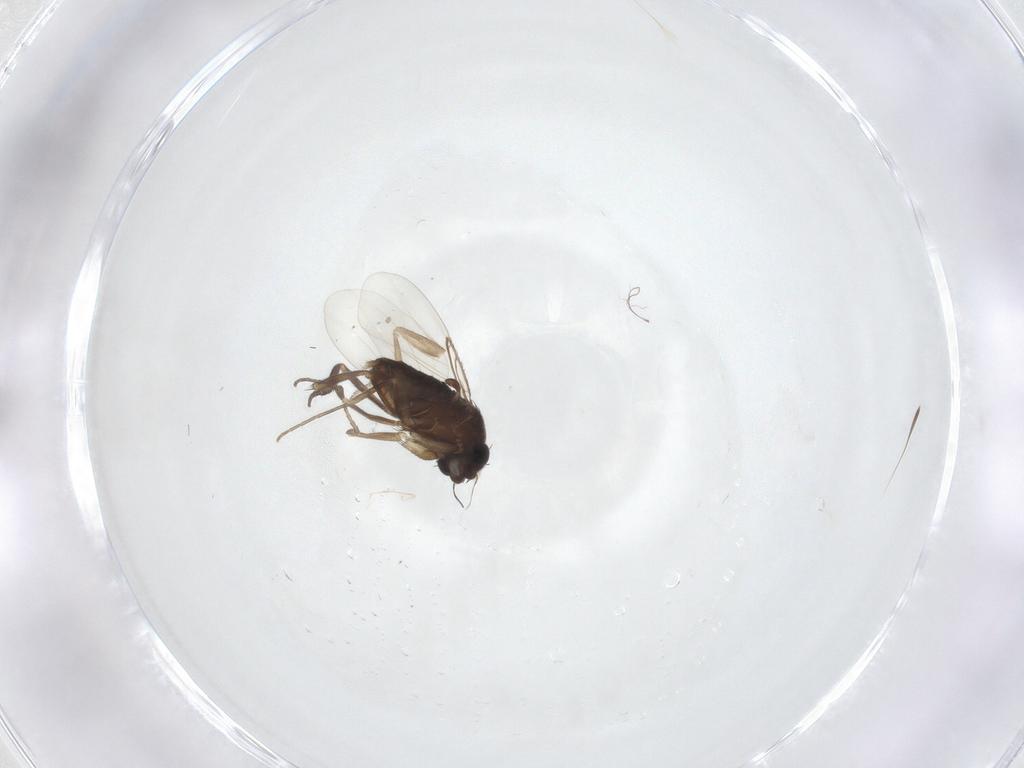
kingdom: Animalia
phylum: Arthropoda
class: Insecta
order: Diptera
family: Phoridae
